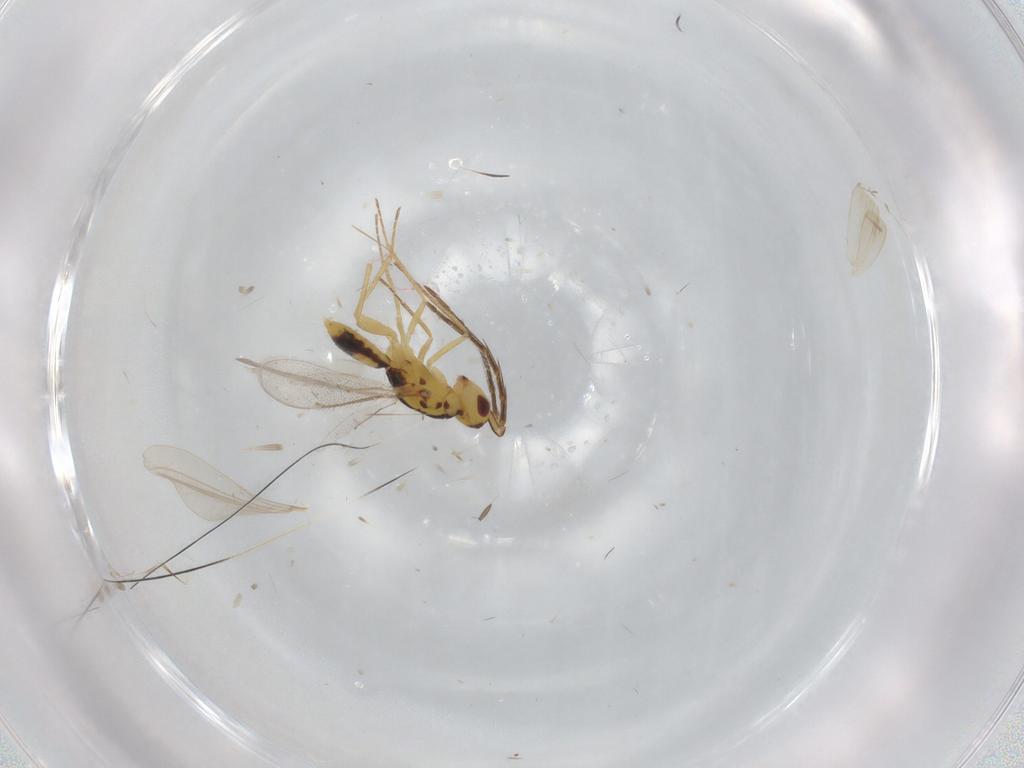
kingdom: Animalia
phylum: Arthropoda
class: Insecta
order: Hymenoptera
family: Eulophidae
